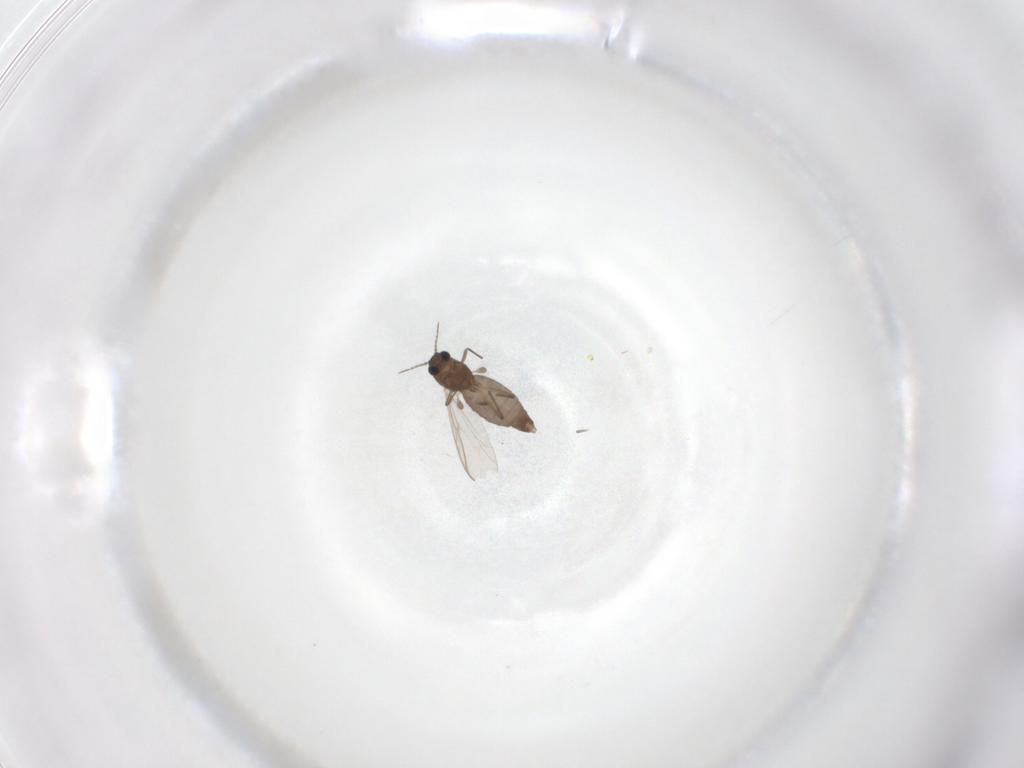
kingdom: Animalia
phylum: Arthropoda
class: Insecta
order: Diptera
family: Chironomidae
